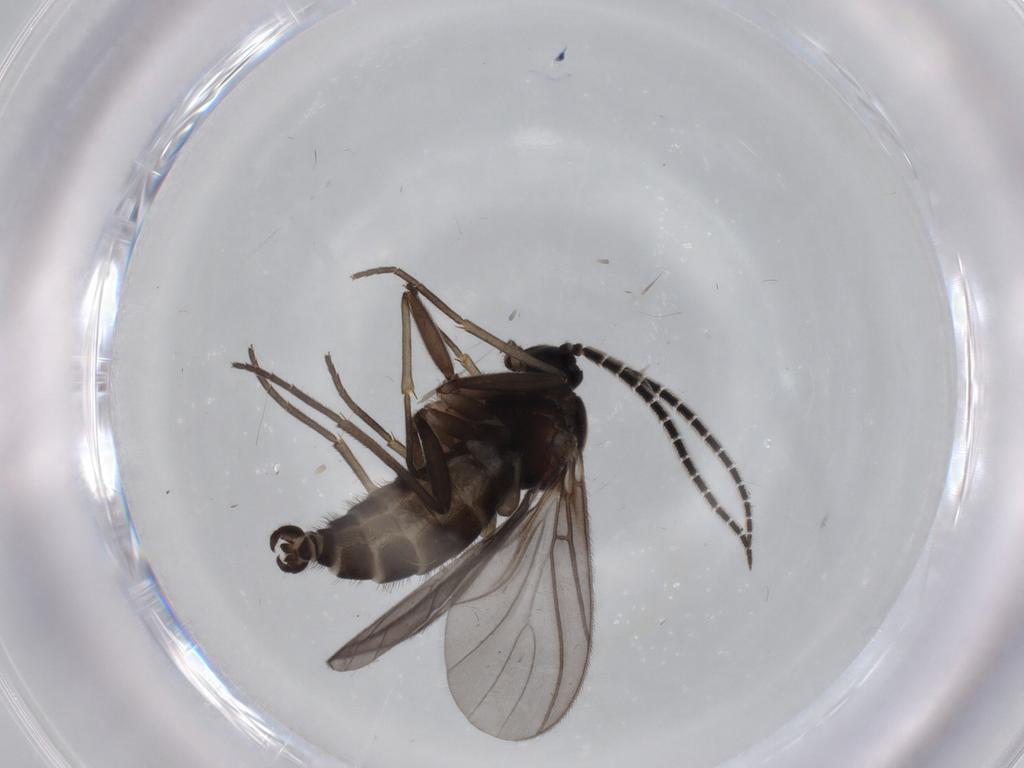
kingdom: Animalia
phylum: Arthropoda
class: Insecta
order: Diptera
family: Sciaridae
